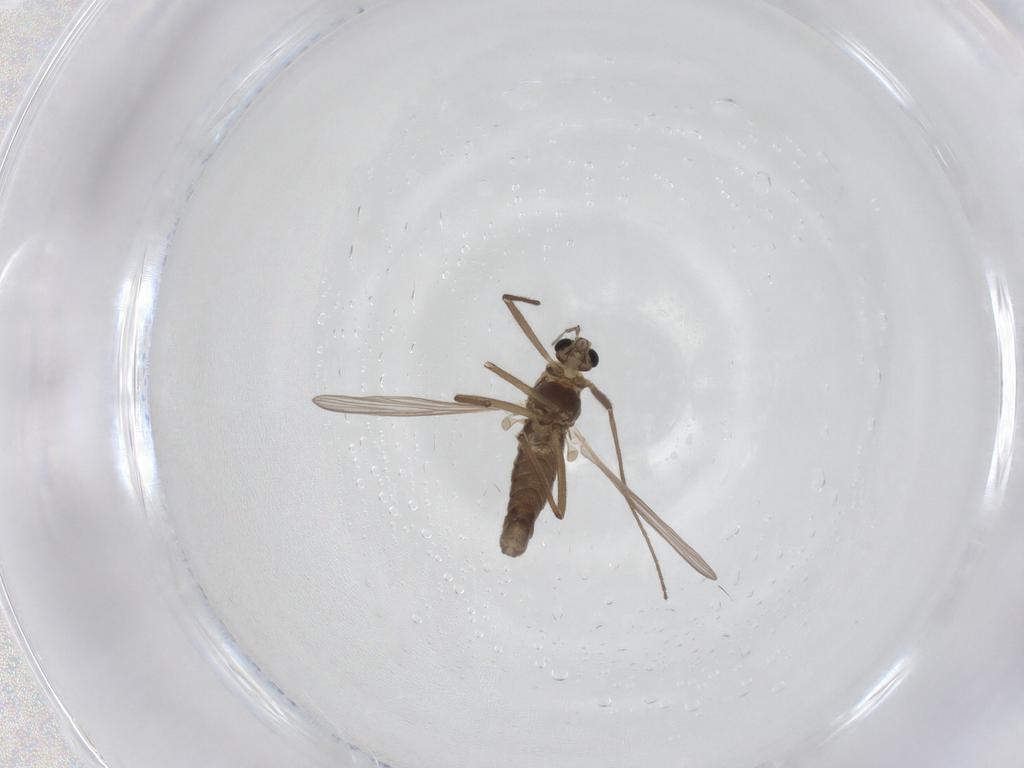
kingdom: Animalia
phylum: Arthropoda
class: Insecta
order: Diptera
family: Chironomidae
